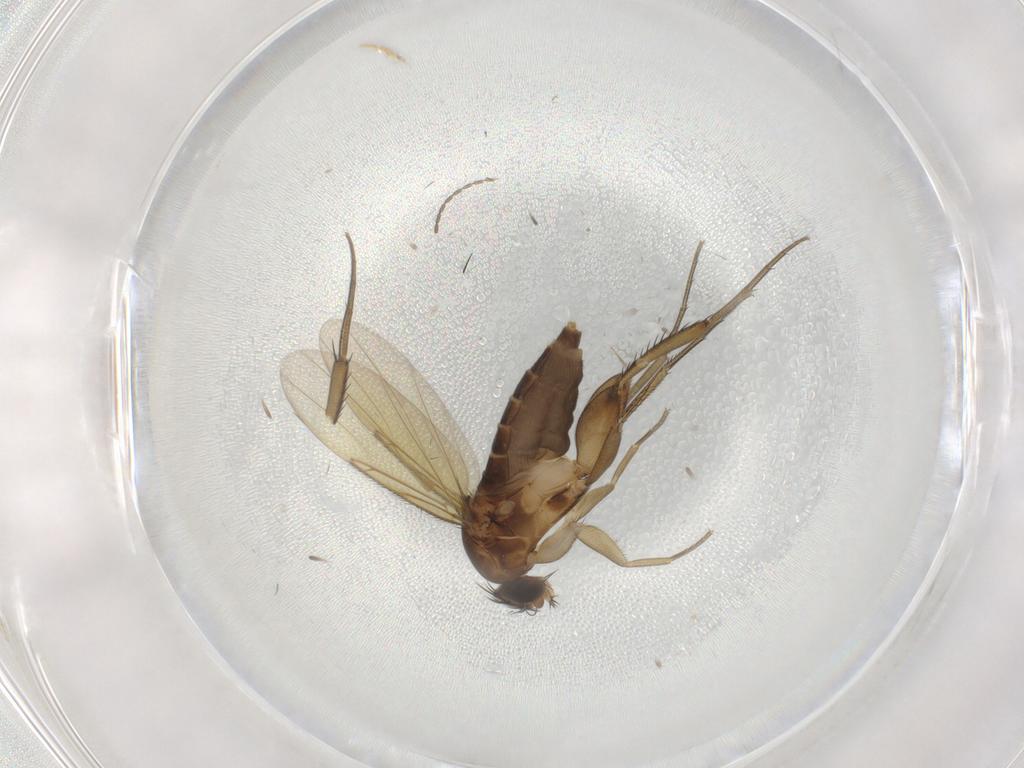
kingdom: Animalia
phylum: Arthropoda
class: Insecta
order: Diptera
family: Phoridae
